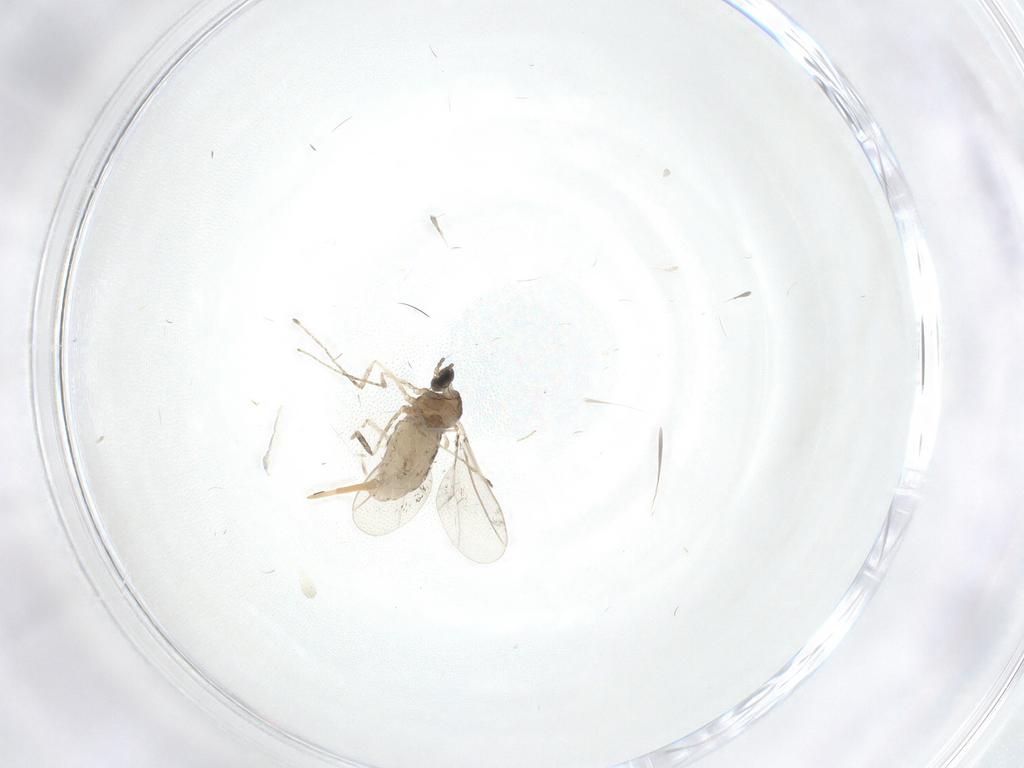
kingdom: Animalia
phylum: Arthropoda
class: Insecta
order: Diptera
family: Cecidomyiidae
